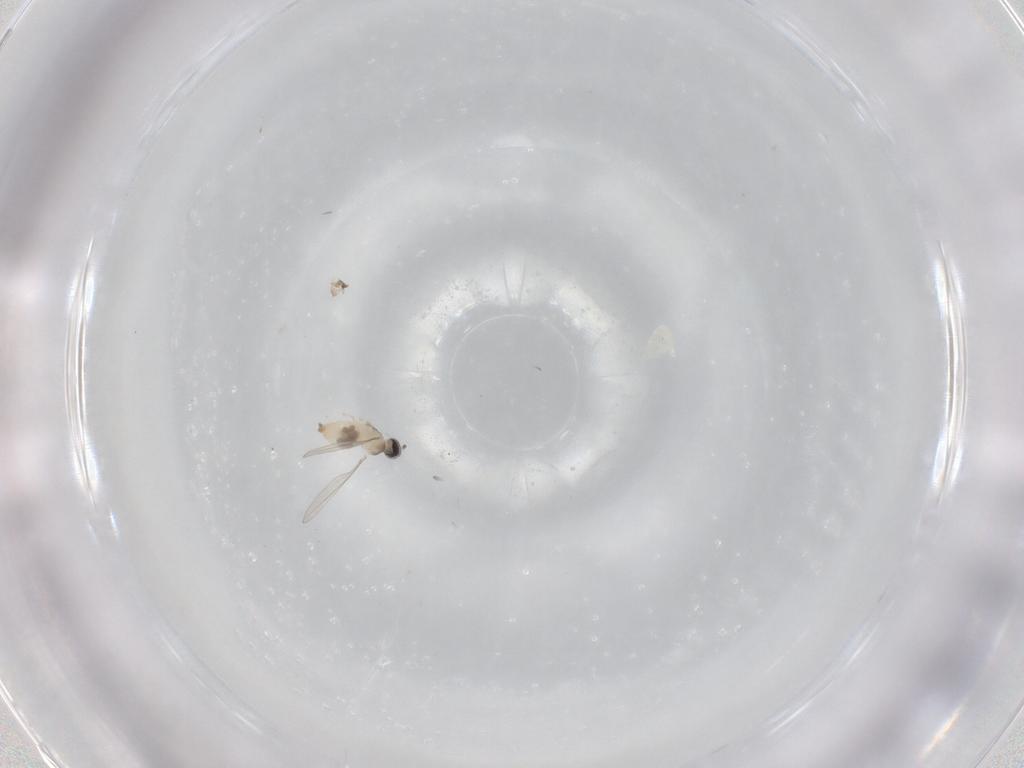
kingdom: Animalia
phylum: Arthropoda
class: Insecta
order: Diptera
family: Cecidomyiidae
